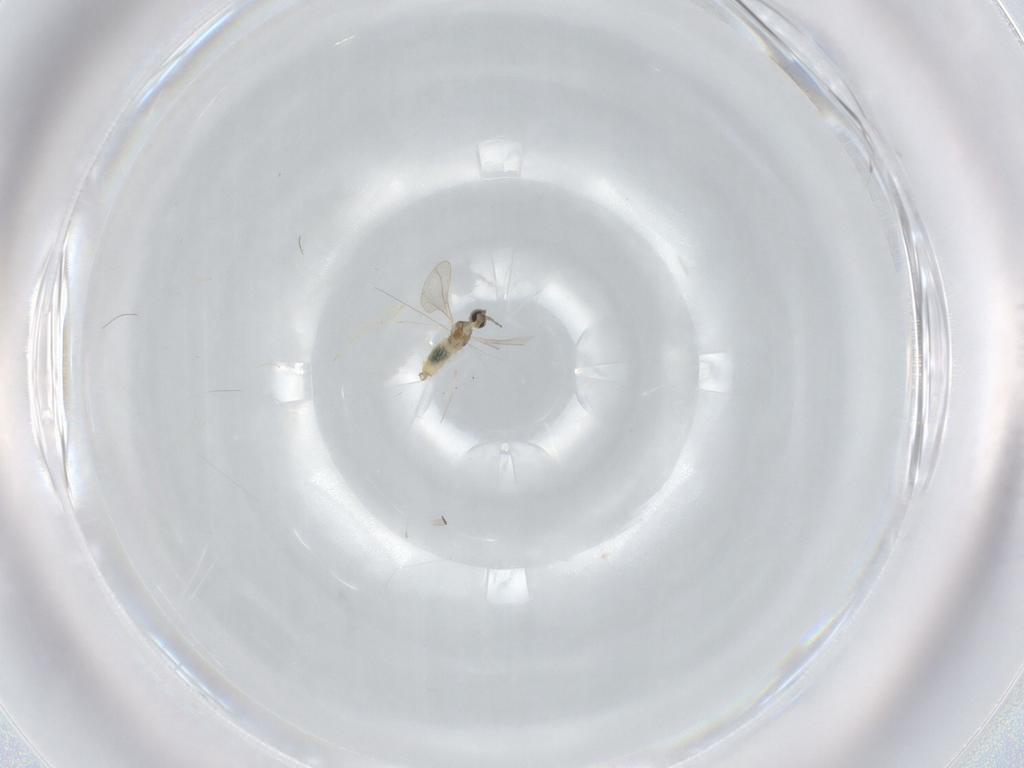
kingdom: Animalia
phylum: Arthropoda
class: Insecta
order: Diptera
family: Cecidomyiidae
